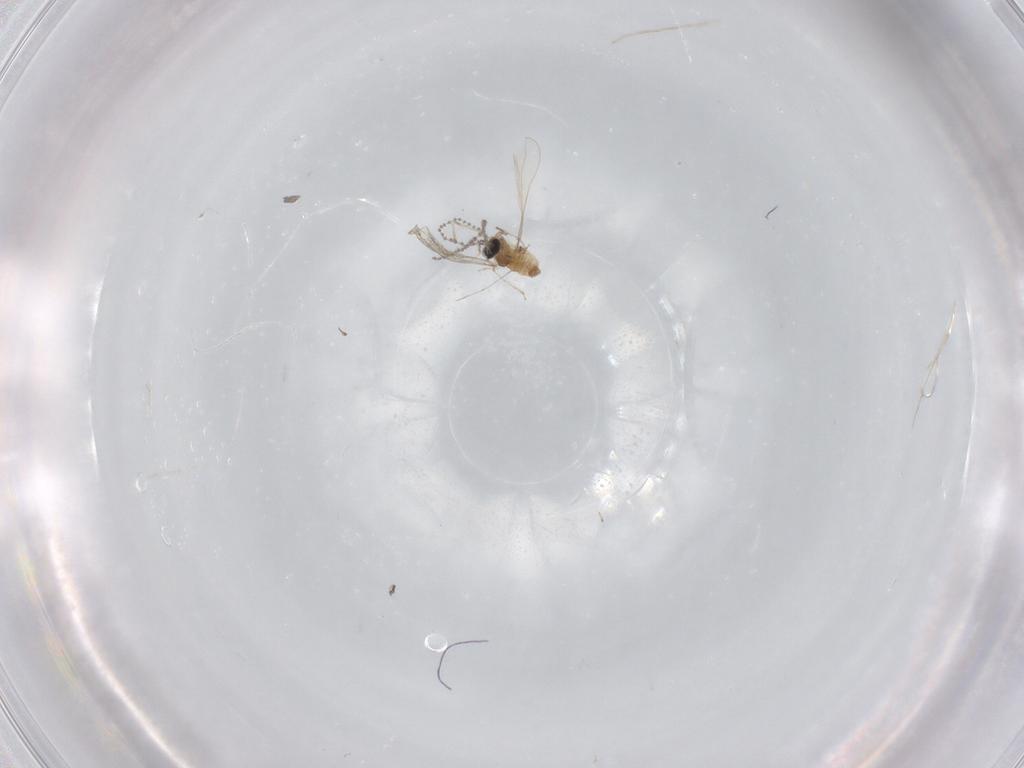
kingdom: Animalia
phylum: Arthropoda
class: Insecta
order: Diptera
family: Cecidomyiidae
